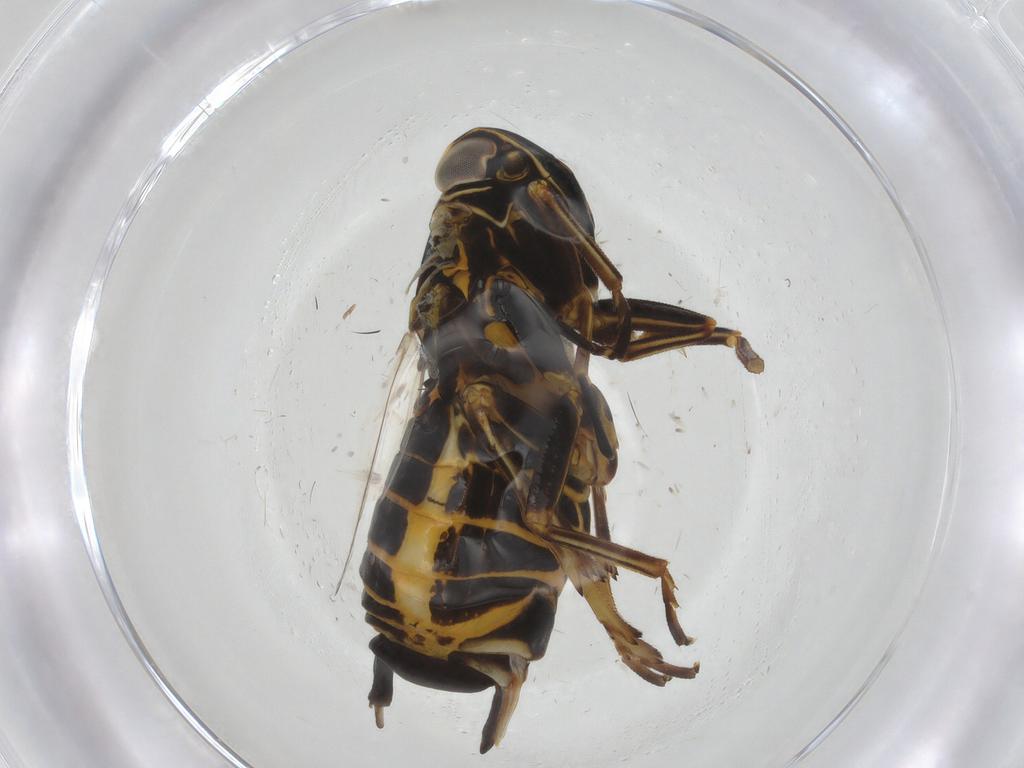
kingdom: Animalia
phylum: Arthropoda
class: Insecta
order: Hemiptera
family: Cixiidae
